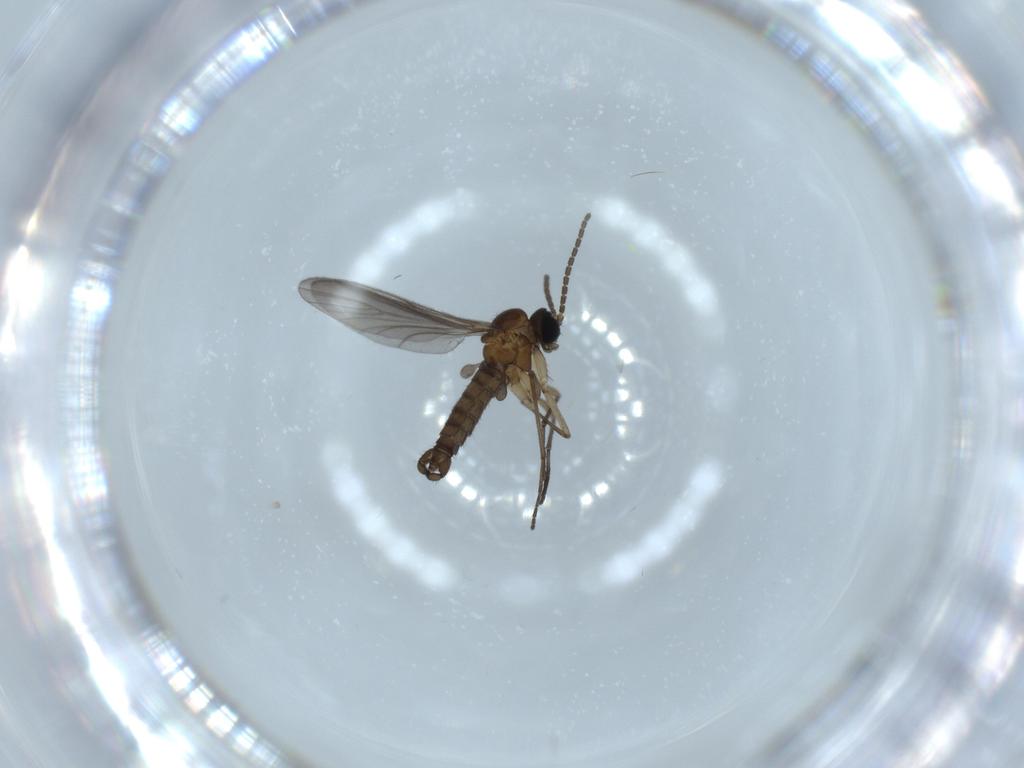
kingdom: Animalia
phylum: Arthropoda
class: Insecta
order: Diptera
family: Sciaridae
